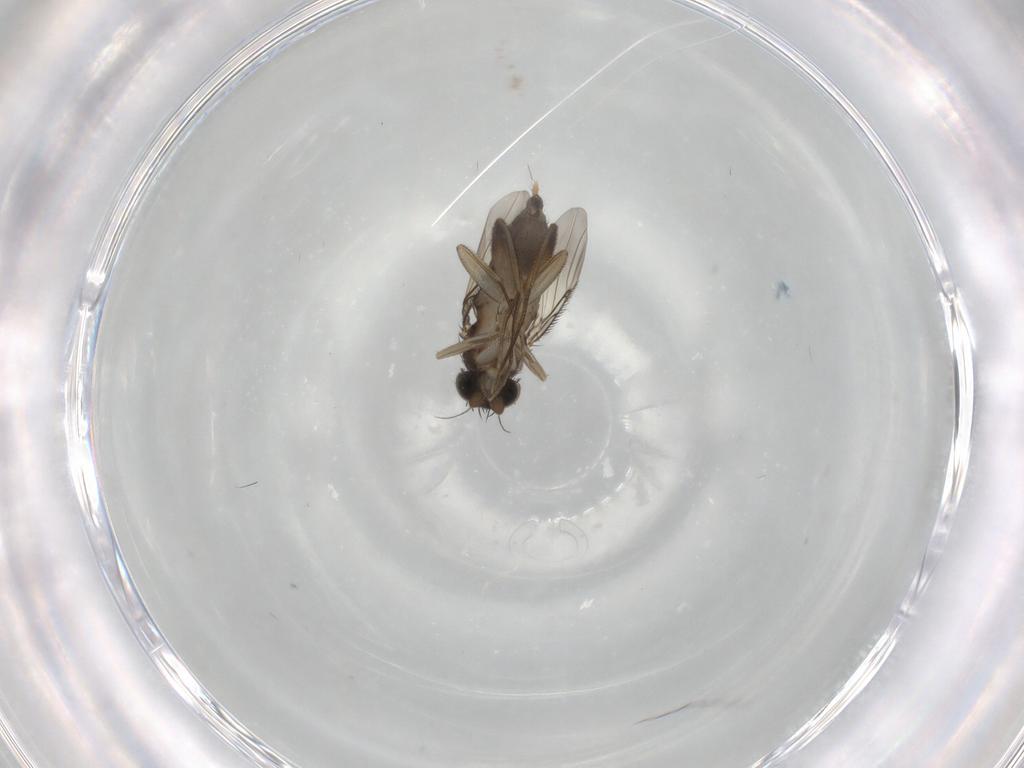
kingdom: Animalia
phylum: Arthropoda
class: Insecta
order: Diptera
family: Phoridae
